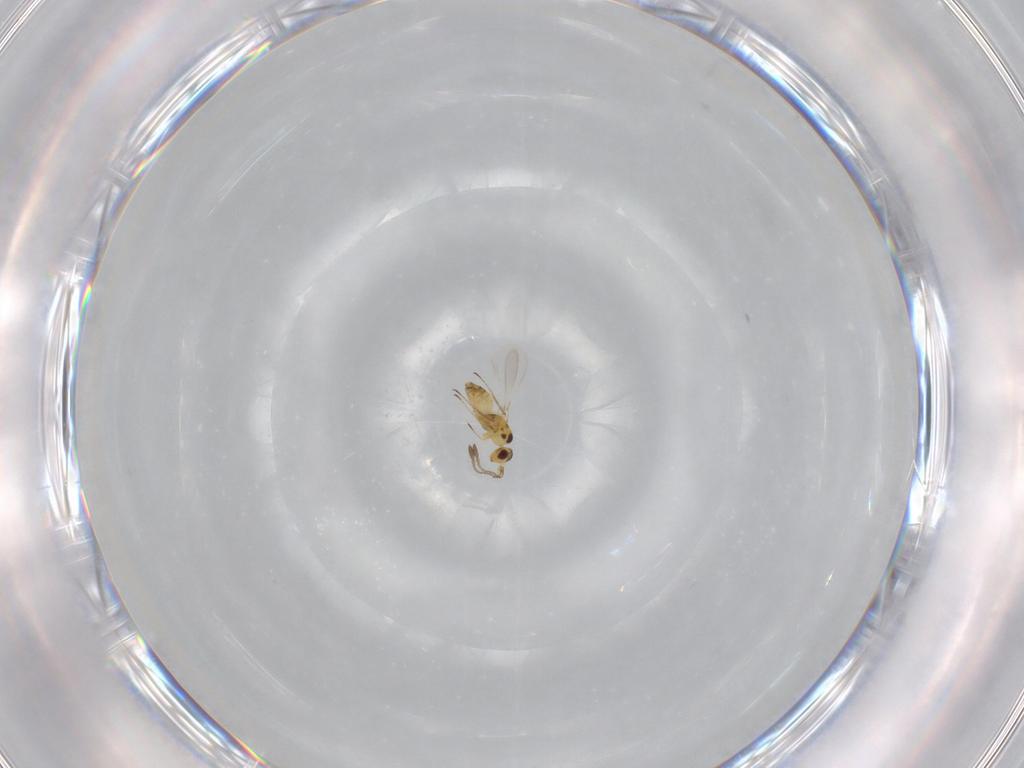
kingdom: Animalia
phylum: Arthropoda
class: Insecta
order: Hymenoptera
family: Mymaridae
